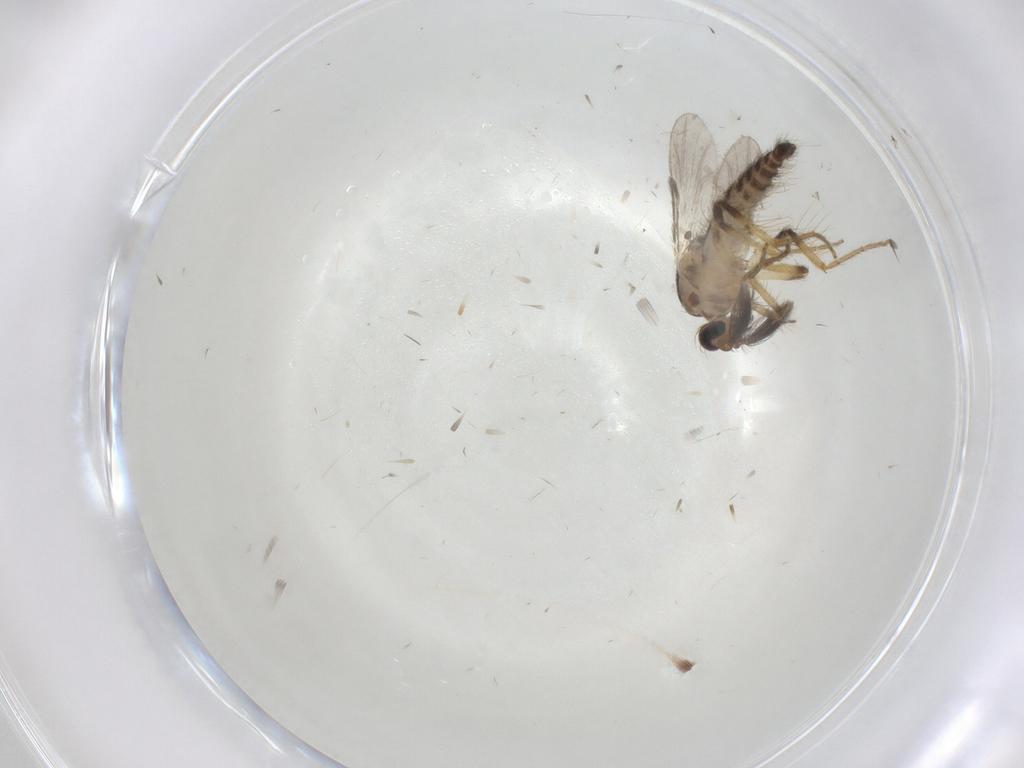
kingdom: Animalia
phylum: Arthropoda
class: Insecta
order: Diptera
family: Ceratopogonidae
